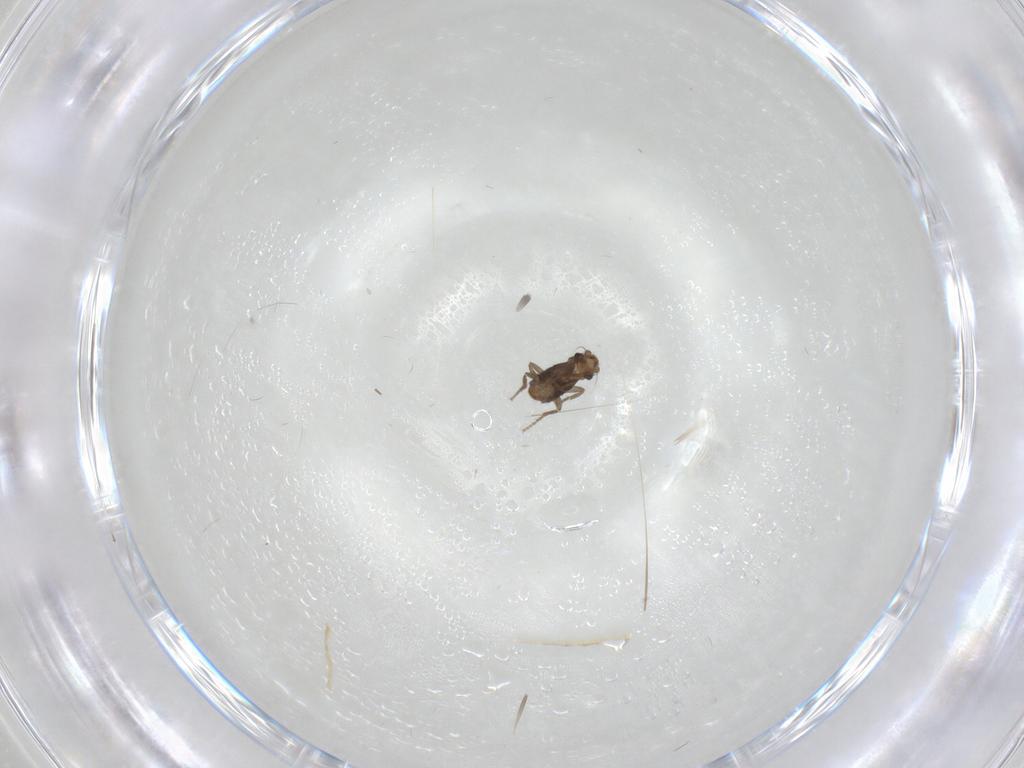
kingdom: Animalia
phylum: Arthropoda
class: Insecta
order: Diptera
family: Phoridae
